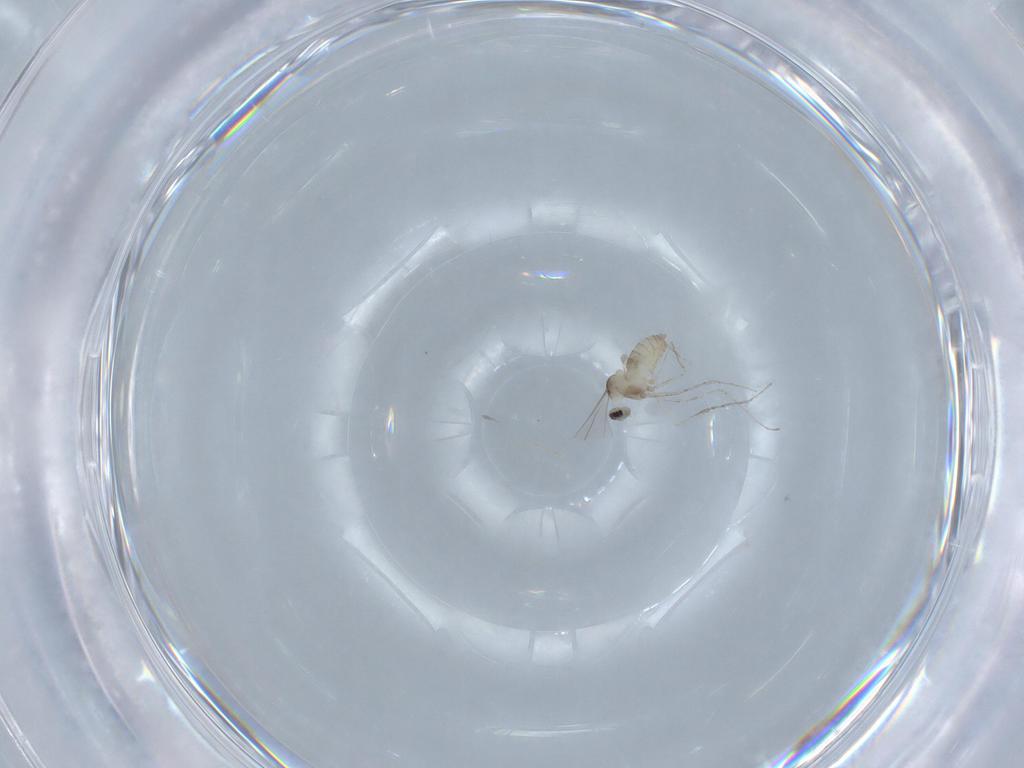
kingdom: Animalia
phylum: Arthropoda
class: Insecta
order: Diptera
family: Cecidomyiidae
